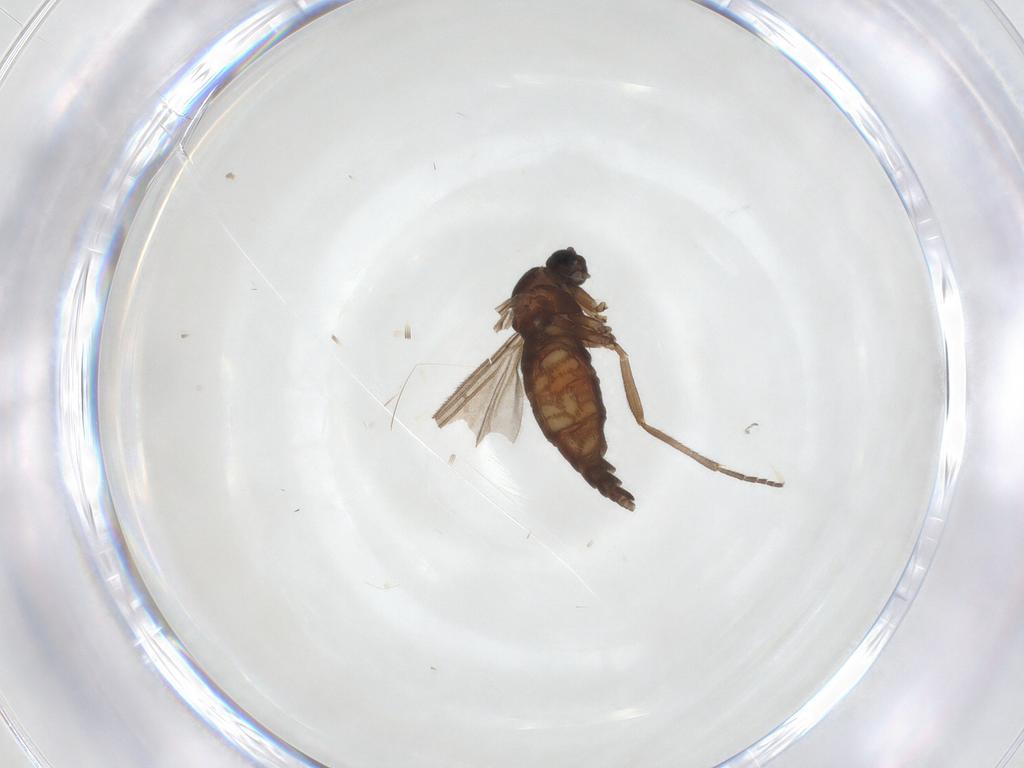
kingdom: Animalia
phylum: Arthropoda
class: Insecta
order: Diptera
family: Sciaridae
